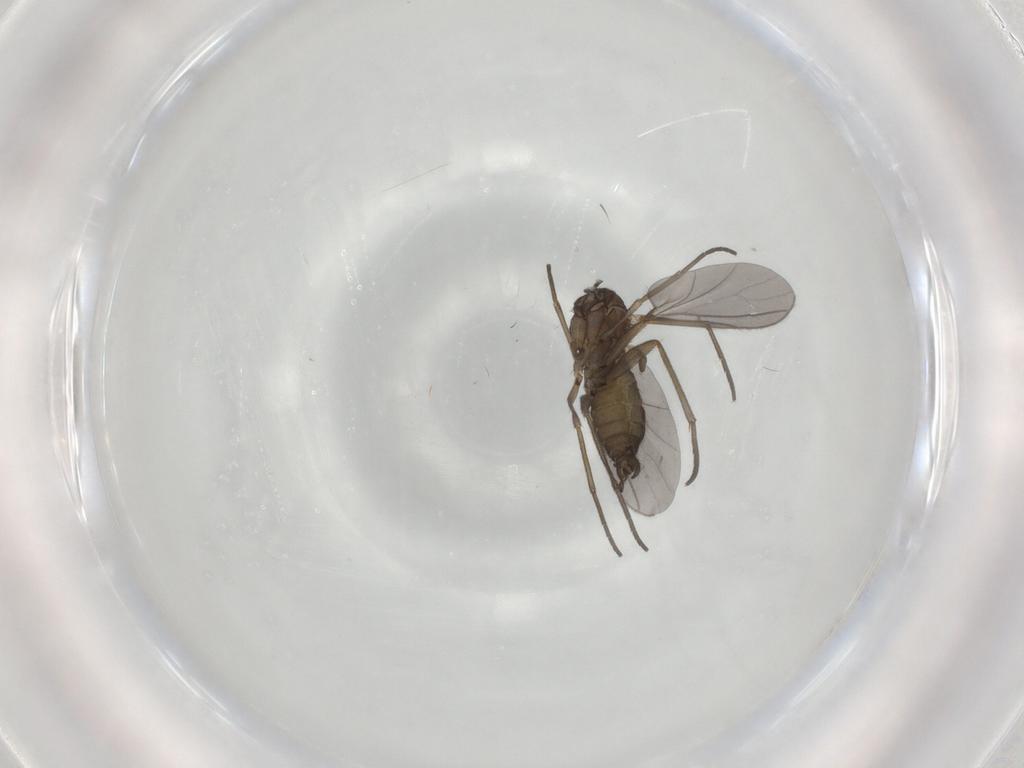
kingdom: Animalia
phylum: Arthropoda
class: Insecta
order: Diptera
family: Sciaridae
